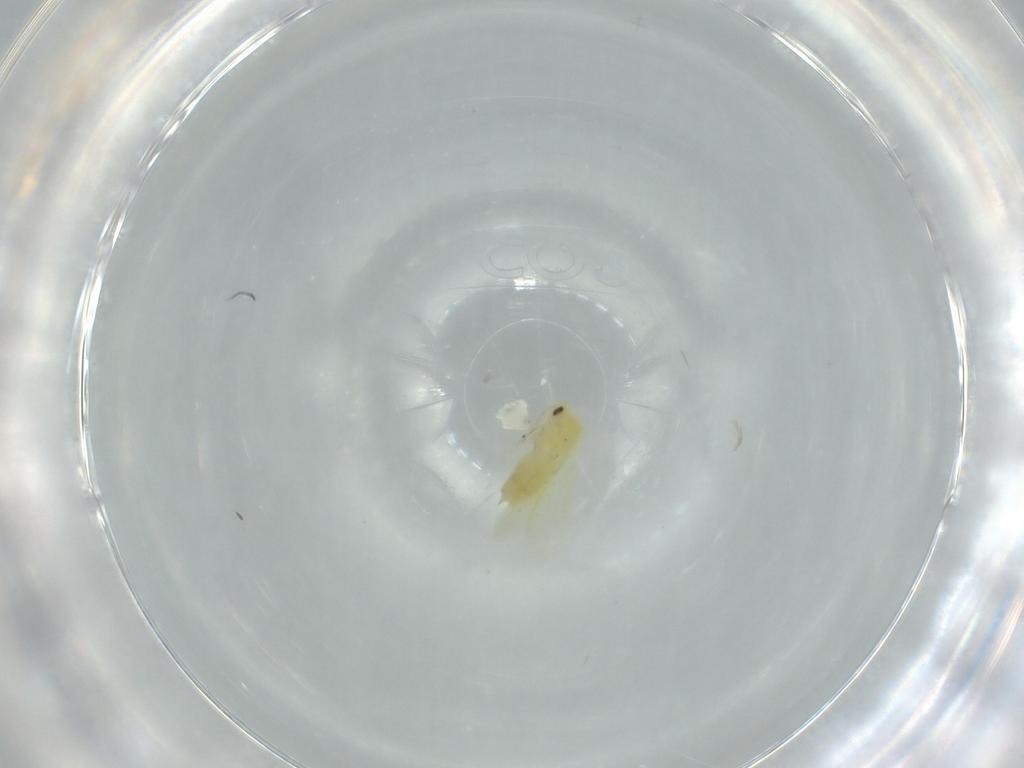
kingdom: Animalia
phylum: Arthropoda
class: Insecta
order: Hemiptera
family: Aleyrodidae
